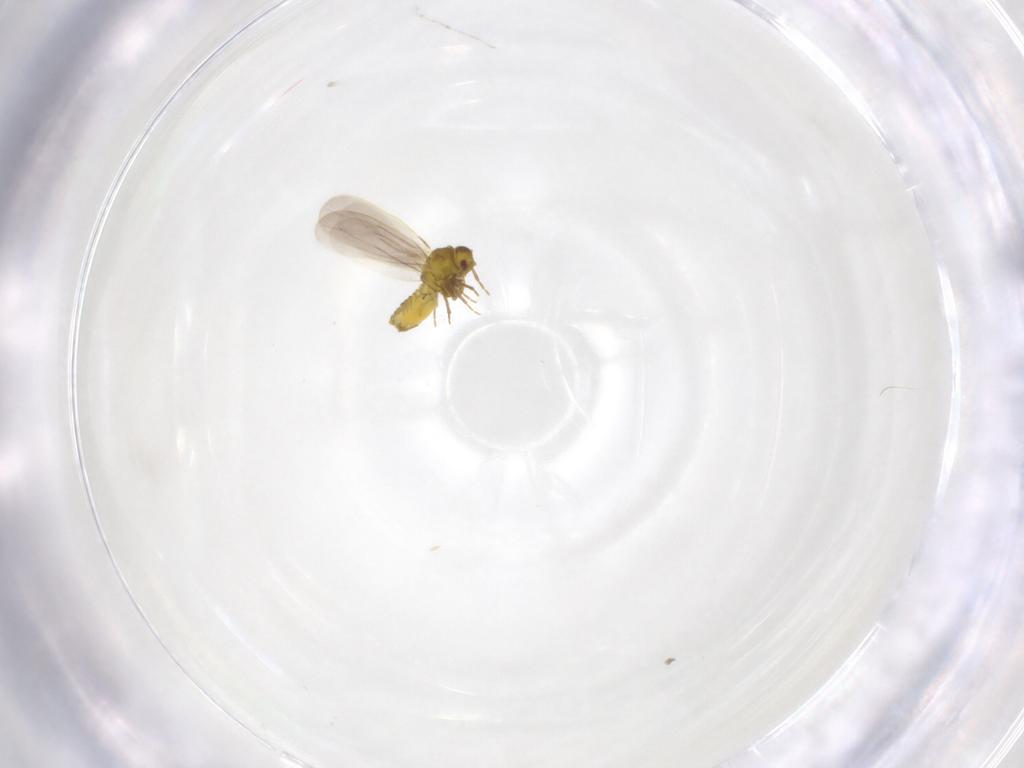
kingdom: Animalia
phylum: Arthropoda
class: Insecta
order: Hemiptera
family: Aleyrodidae
